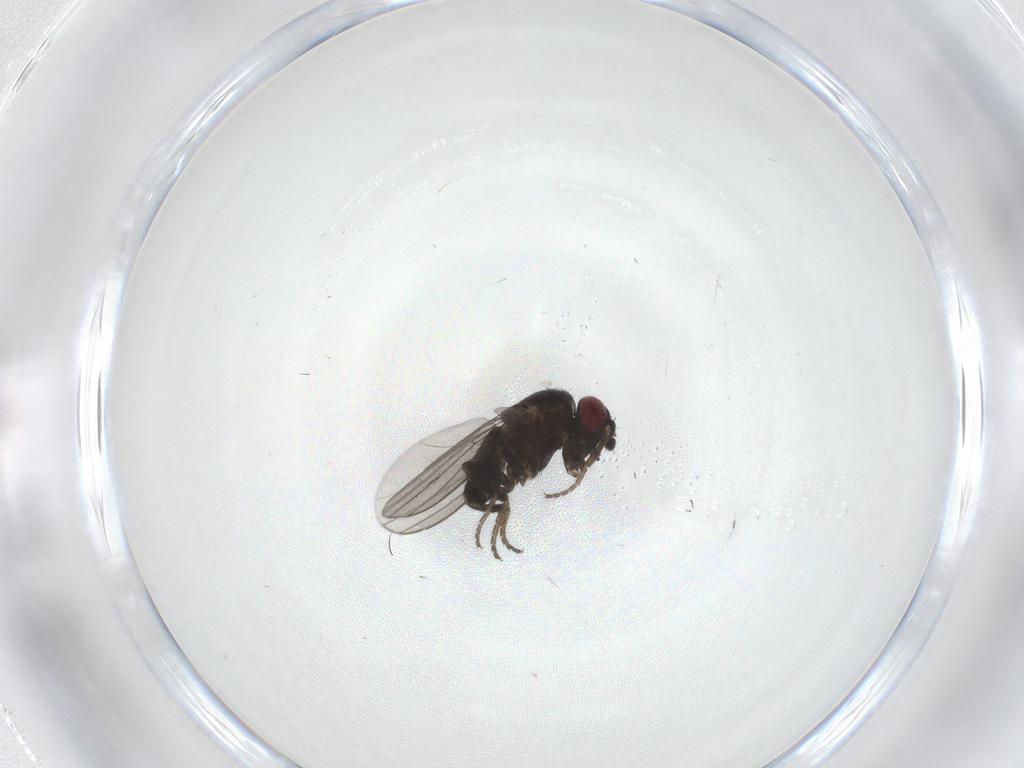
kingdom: Animalia
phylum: Arthropoda
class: Insecta
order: Diptera
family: Milichiidae
